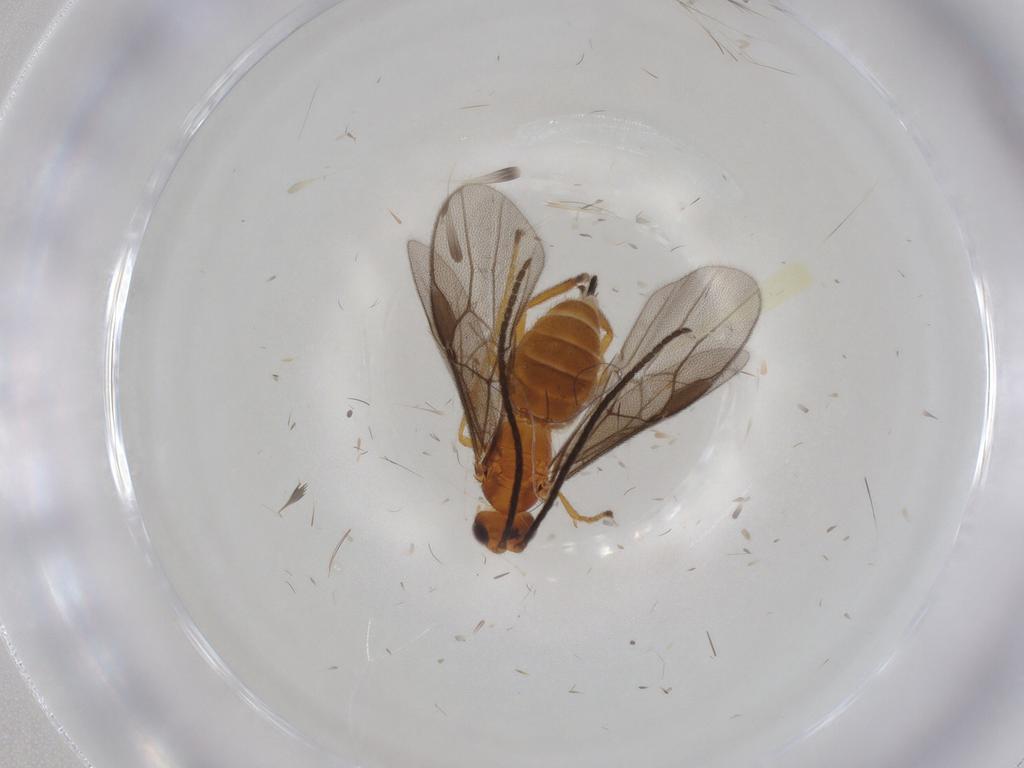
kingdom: Animalia
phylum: Arthropoda
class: Insecta
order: Hymenoptera
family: Braconidae
